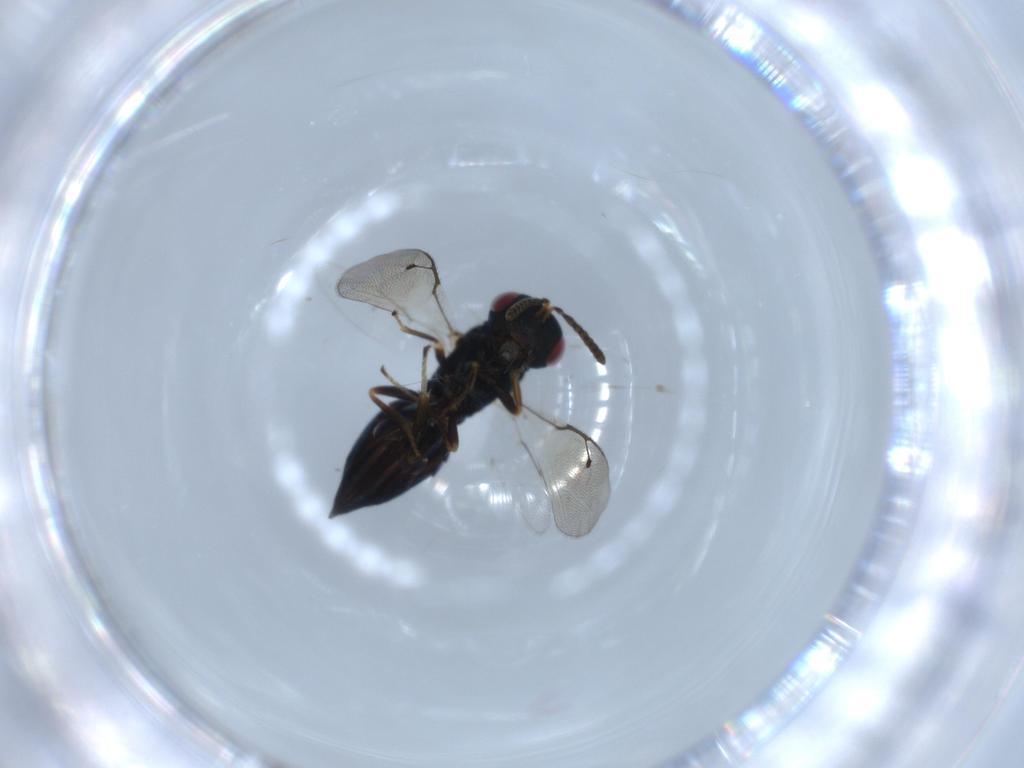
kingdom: Animalia
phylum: Arthropoda
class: Insecta
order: Hymenoptera
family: Pteromalidae
